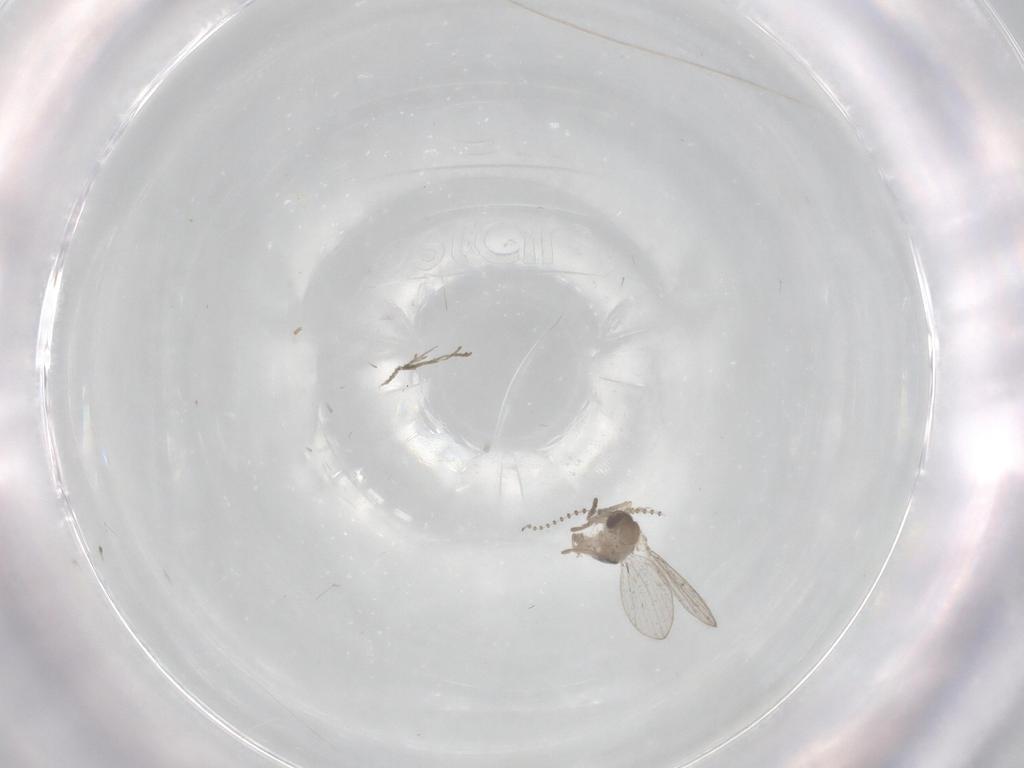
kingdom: Animalia
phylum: Arthropoda
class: Insecta
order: Diptera
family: Psychodidae
